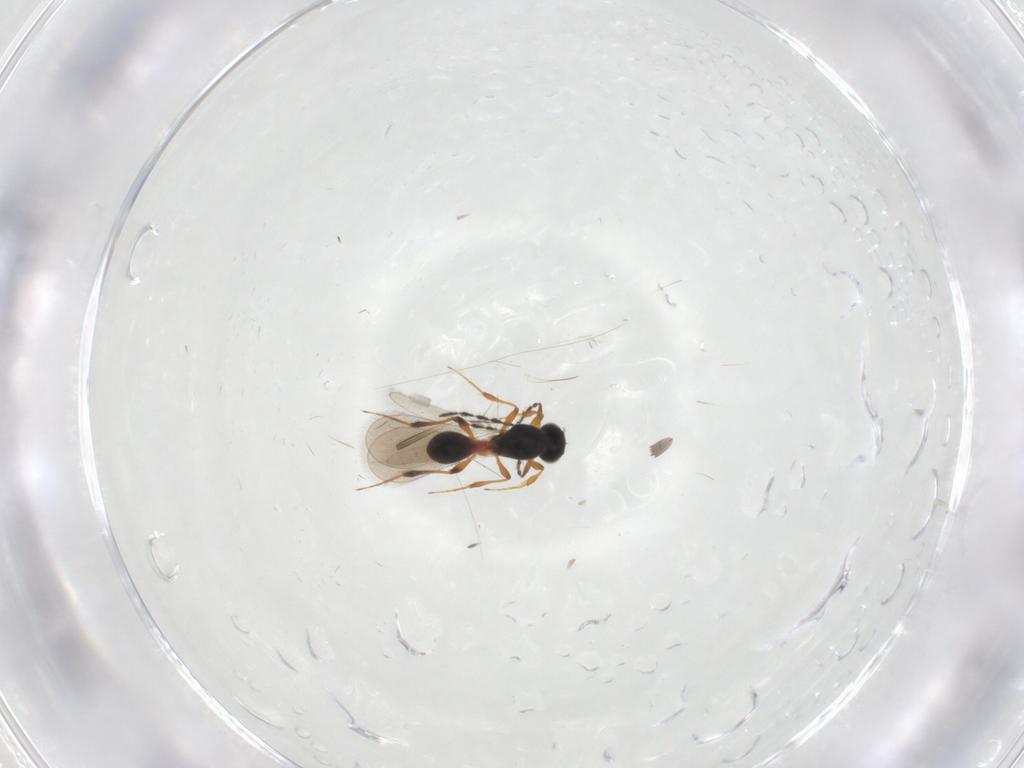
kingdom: Animalia
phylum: Arthropoda
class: Insecta
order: Hymenoptera
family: Platygastridae
